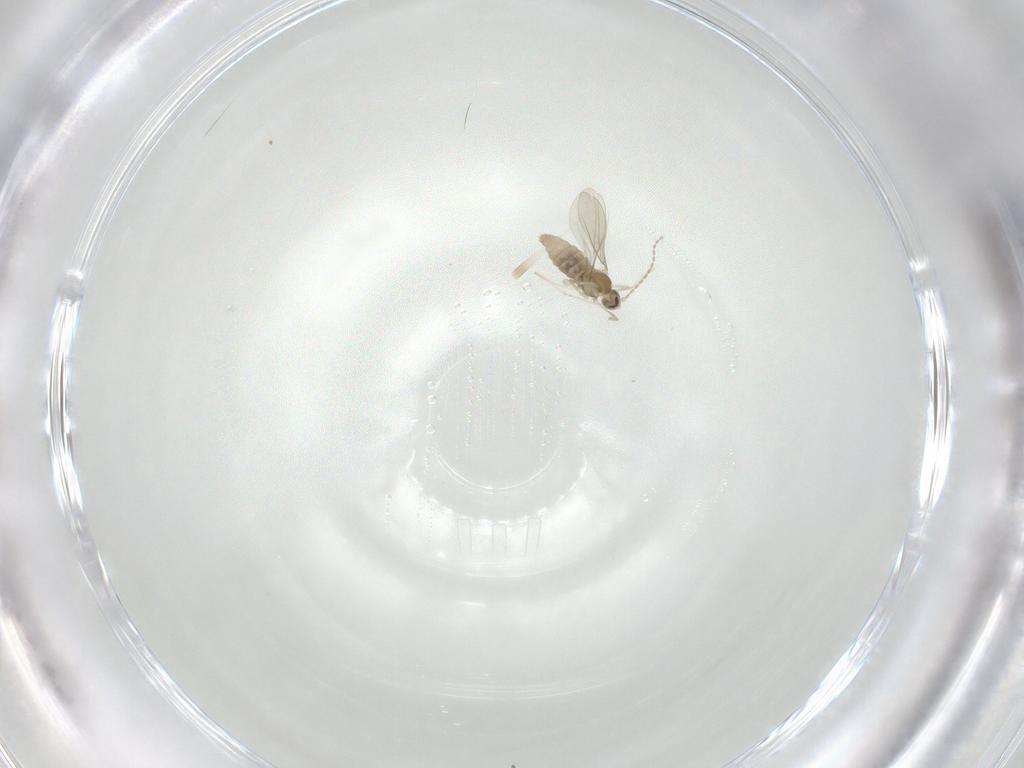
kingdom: Animalia
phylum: Arthropoda
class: Insecta
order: Diptera
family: Cecidomyiidae
